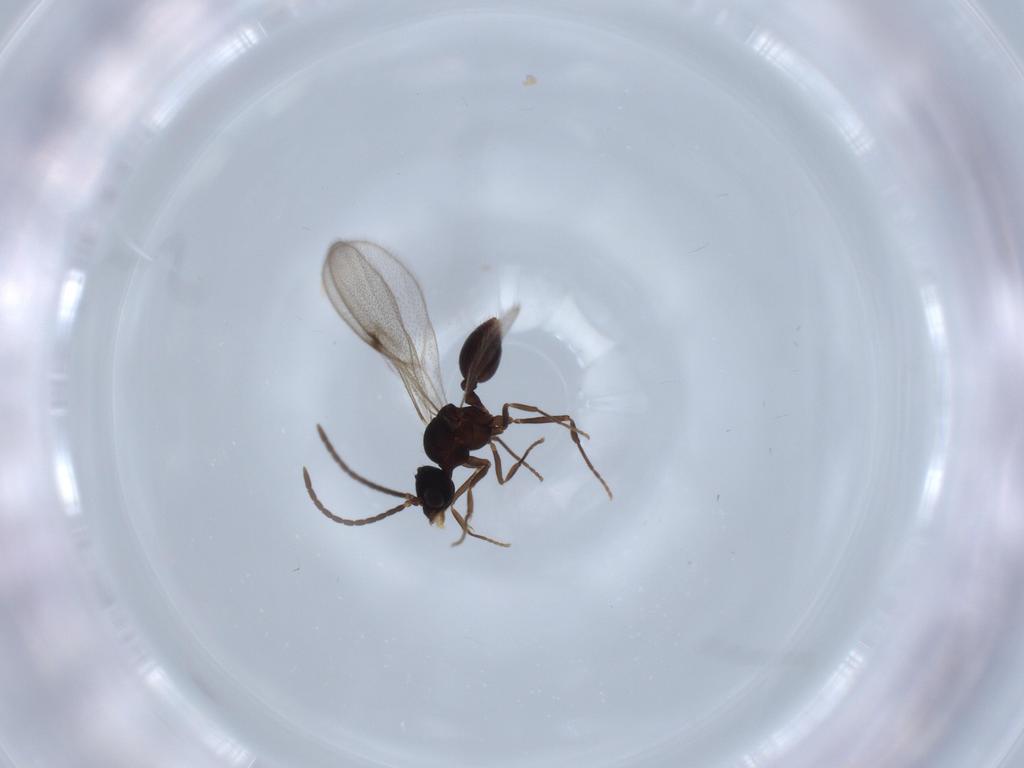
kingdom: Animalia
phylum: Arthropoda
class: Insecta
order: Hymenoptera
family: Formicidae
